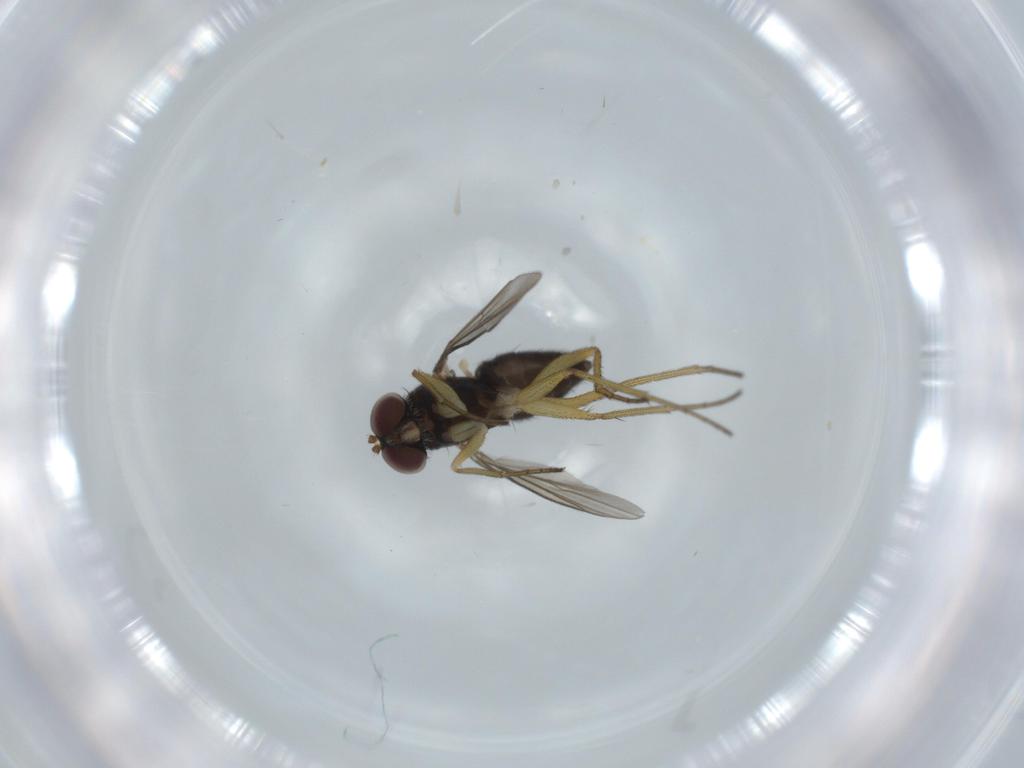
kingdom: Animalia
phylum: Arthropoda
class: Insecta
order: Diptera
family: Dolichopodidae
